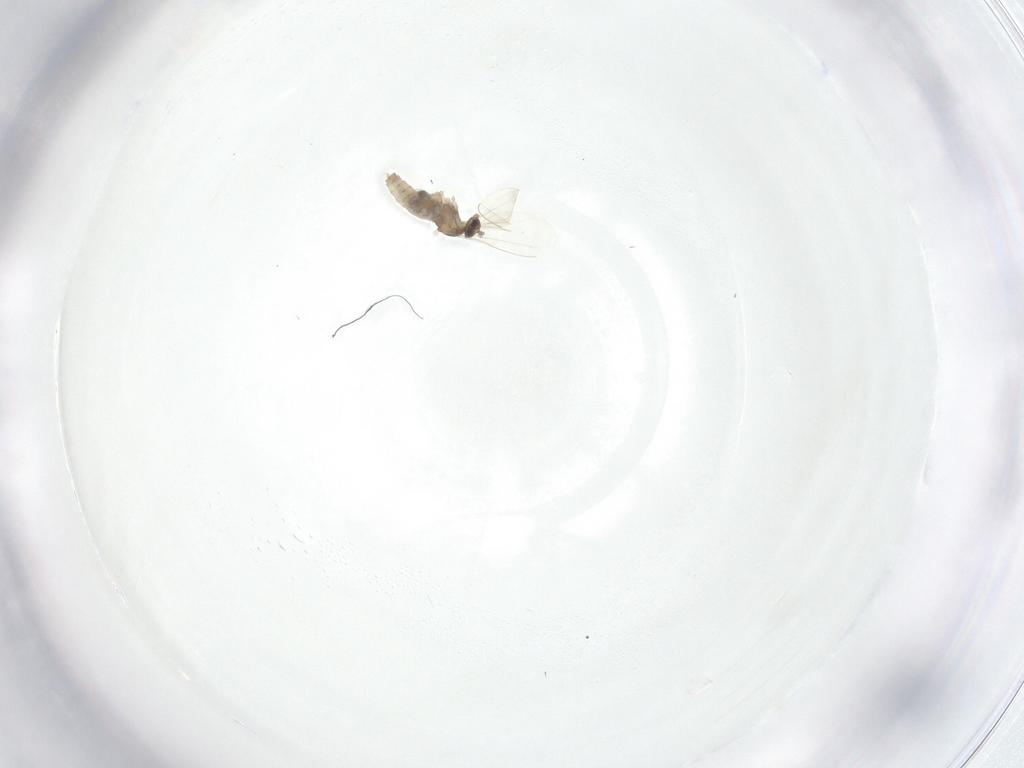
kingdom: Animalia
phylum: Arthropoda
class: Insecta
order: Diptera
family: Cecidomyiidae
